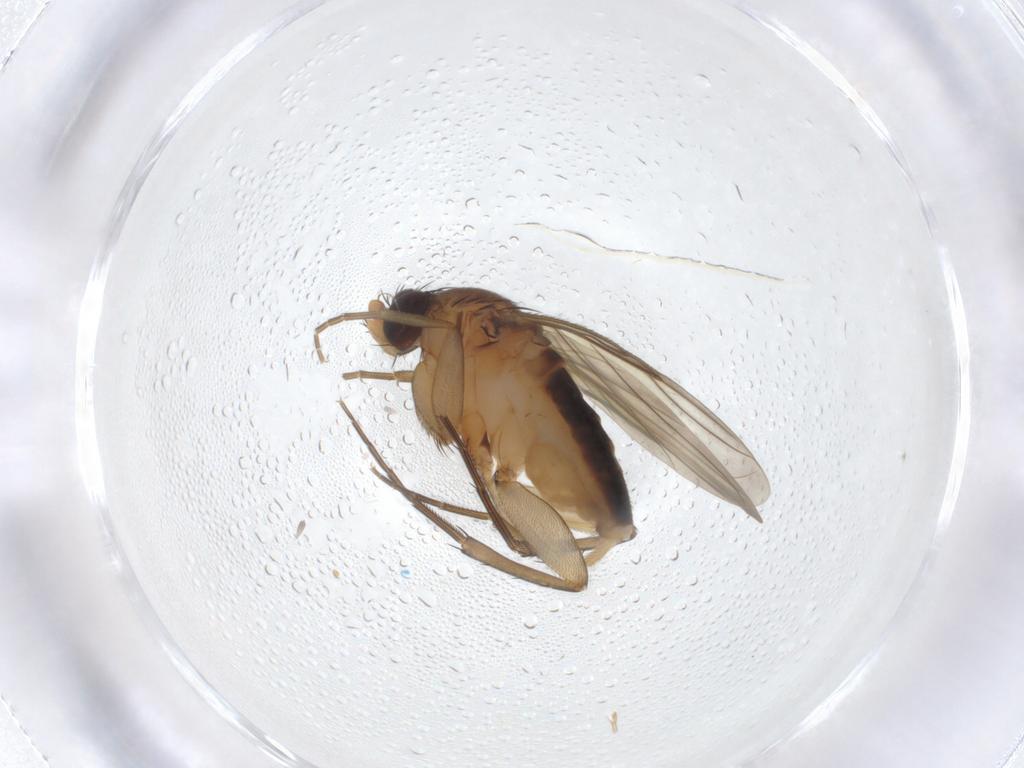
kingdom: Animalia
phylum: Arthropoda
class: Insecta
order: Diptera
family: Phoridae
